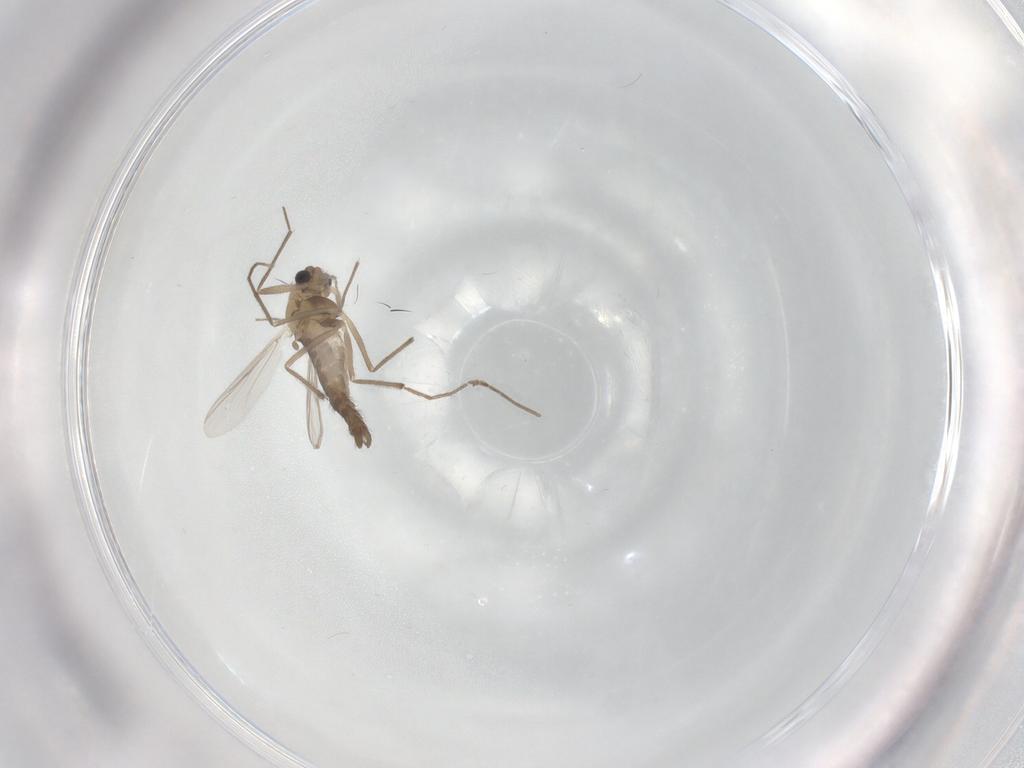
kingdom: Animalia
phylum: Arthropoda
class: Insecta
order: Diptera
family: Chironomidae
